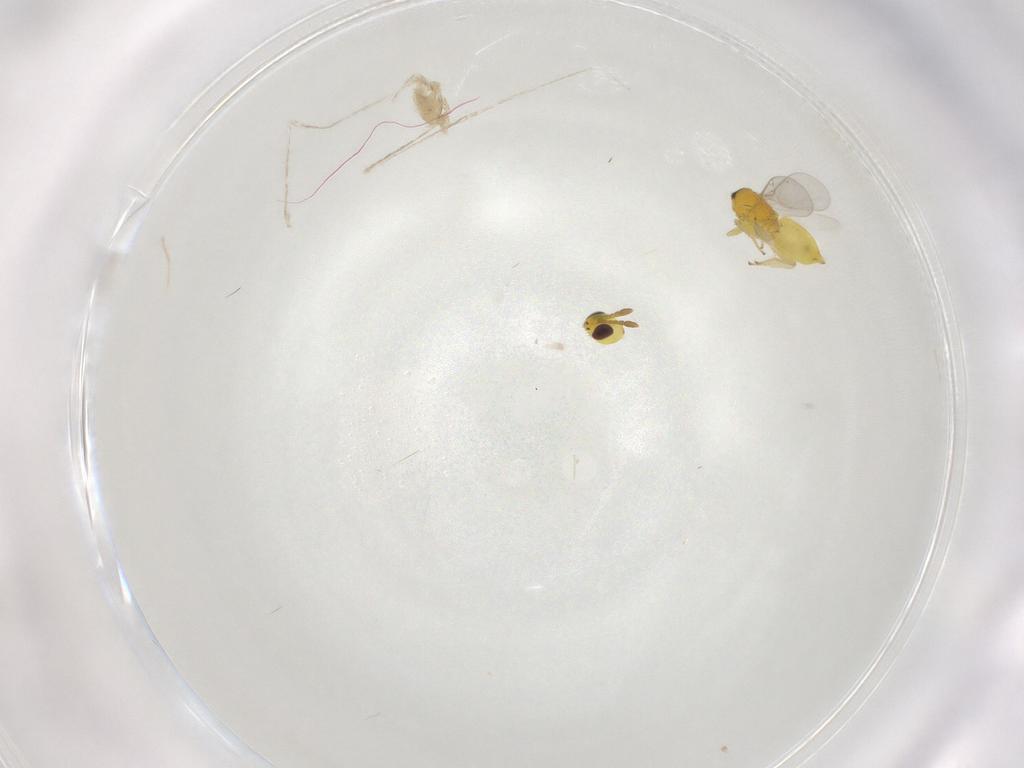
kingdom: Animalia
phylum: Arthropoda
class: Insecta
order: Hymenoptera
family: Aphelinidae
